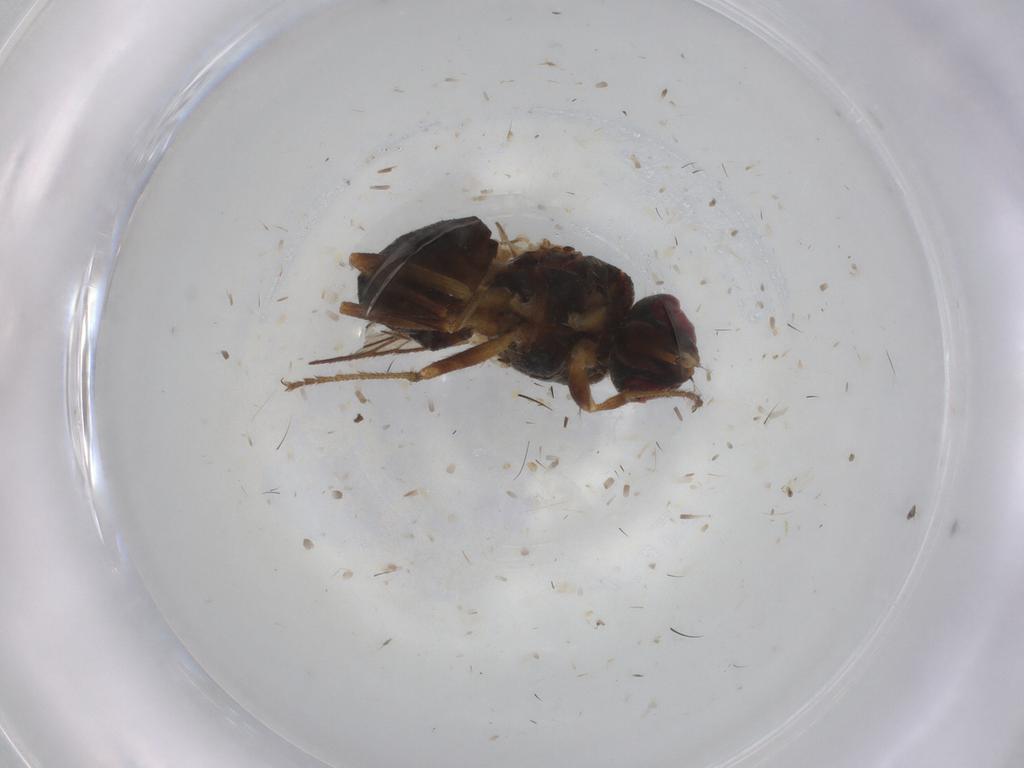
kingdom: Animalia
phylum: Arthropoda
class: Insecta
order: Diptera
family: Muscidae
